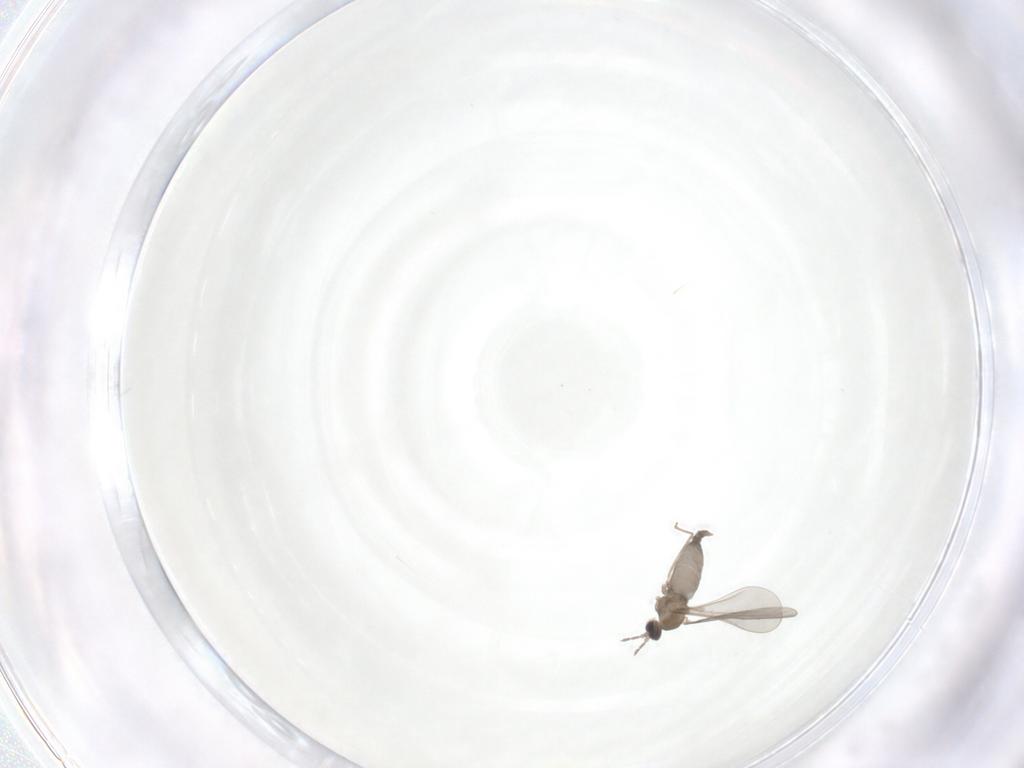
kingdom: Animalia
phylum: Arthropoda
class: Insecta
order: Diptera
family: Cecidomyiidae
